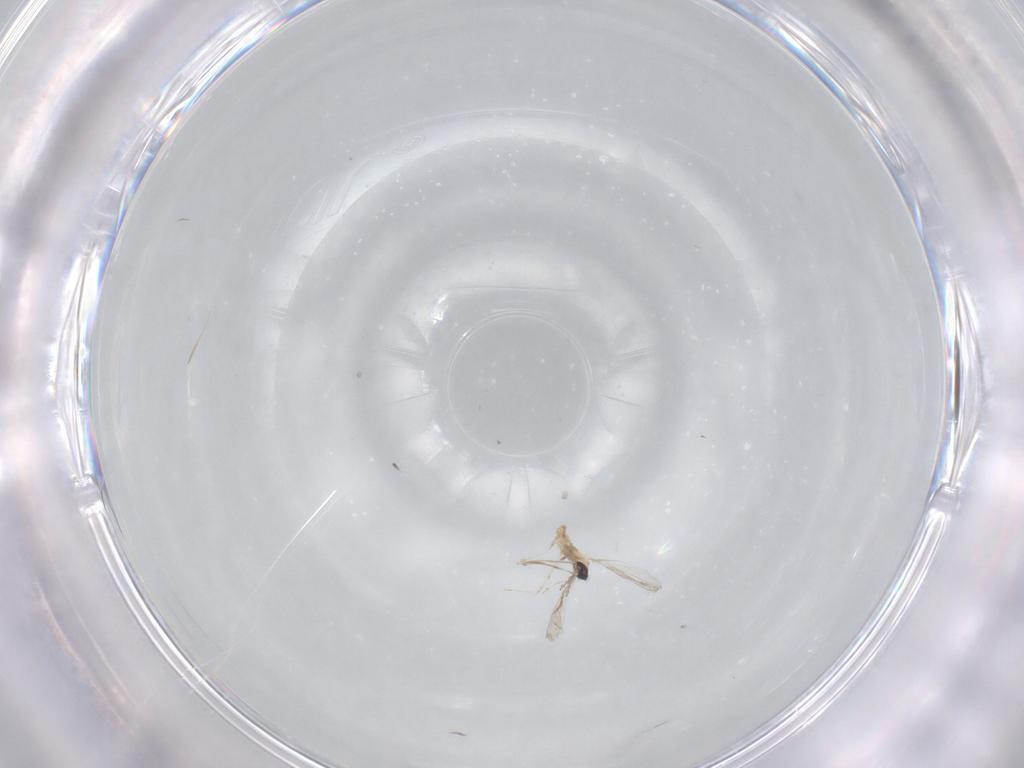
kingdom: Animalia
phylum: Arthropoda
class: Insecta
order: Diptera
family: Cecidomyiidae
